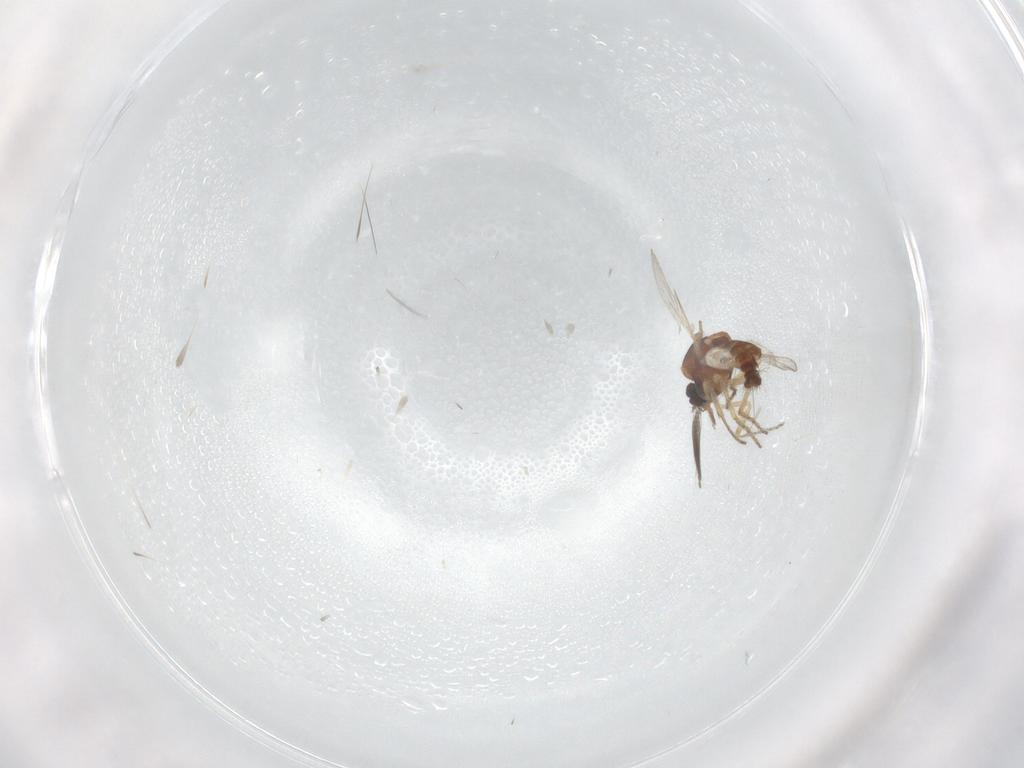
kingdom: Animalia
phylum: Arthropoda
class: Insecta
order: Diptera
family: Ceratopogonidae
